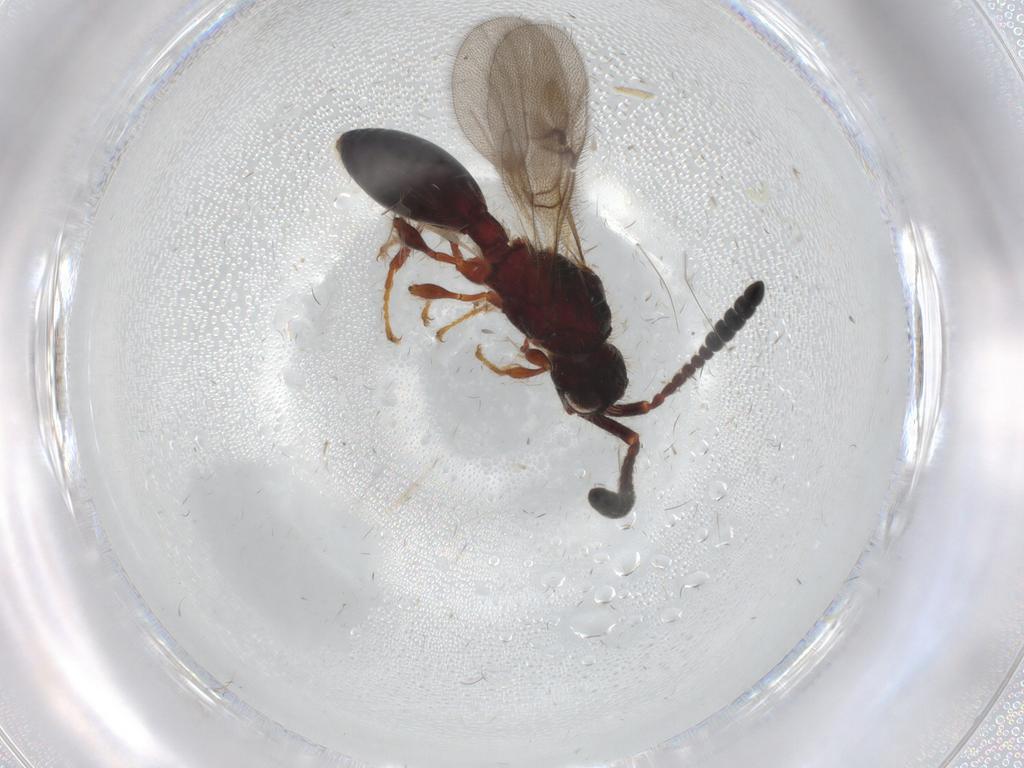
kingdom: Animalia
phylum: Arthropoda
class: Insecta
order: Hymenoptera
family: Diapriidae
